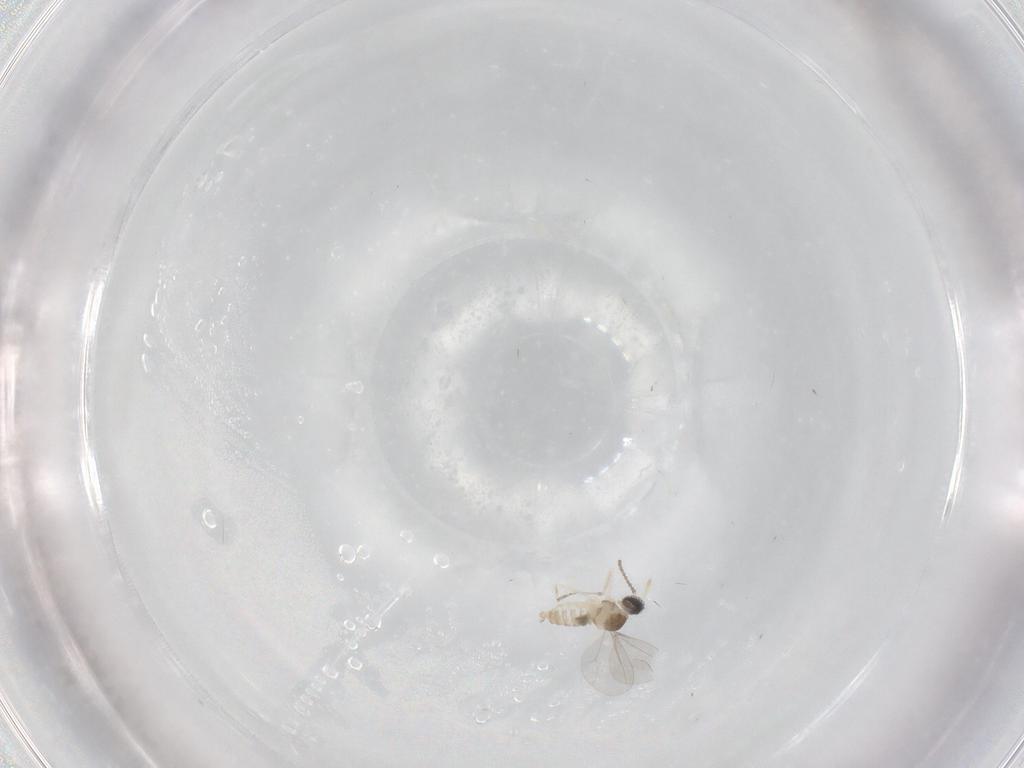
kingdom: Animalia
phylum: Arthropoda
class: Insecta
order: Diptera
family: Cecidomyiidae
